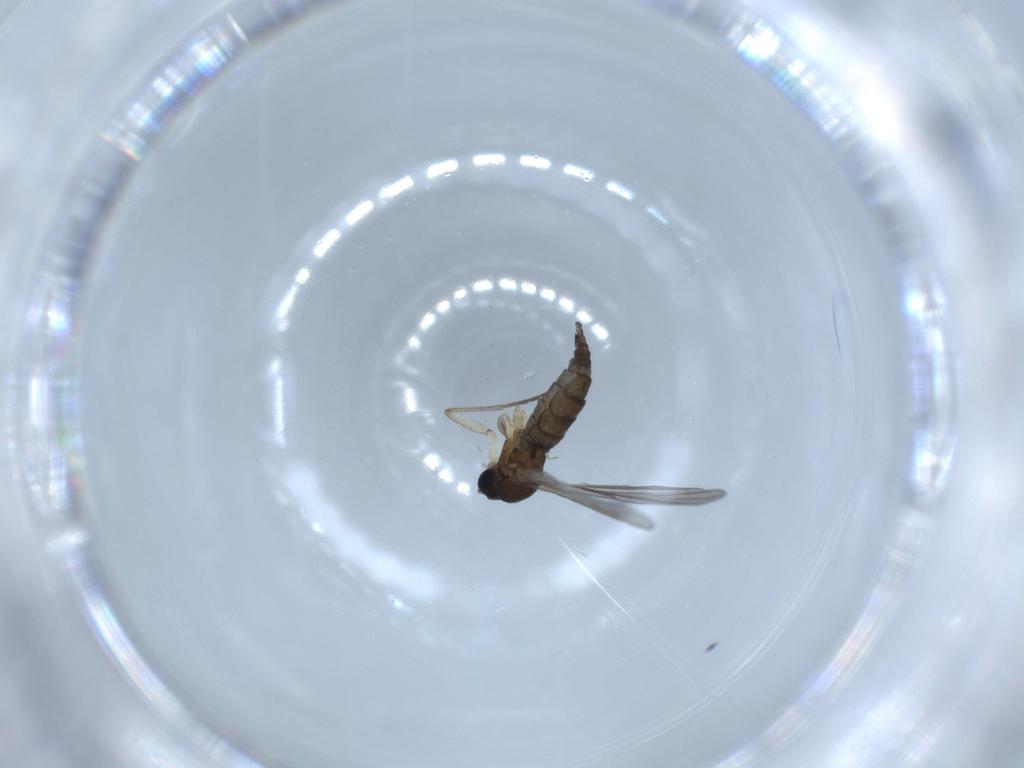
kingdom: Animalia
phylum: Arthropoda
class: Insecta
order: Diptera
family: Sciaridae
